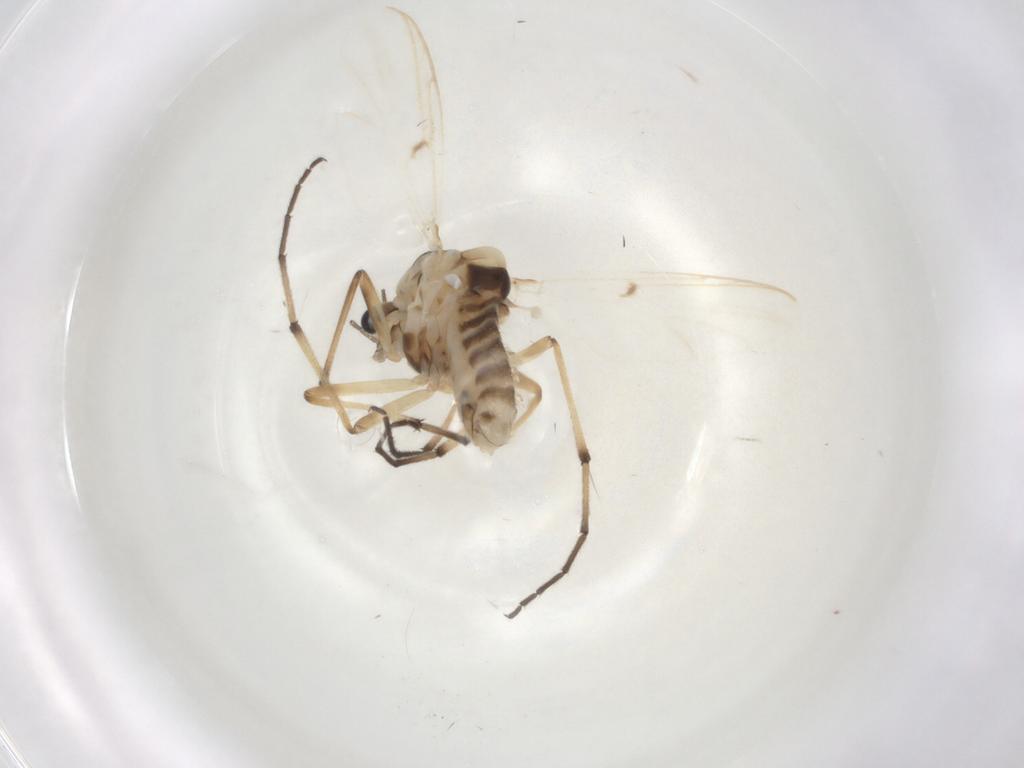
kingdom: Animalia
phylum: Arthropoda
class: Insecta
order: Diptera
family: Chironomidae
